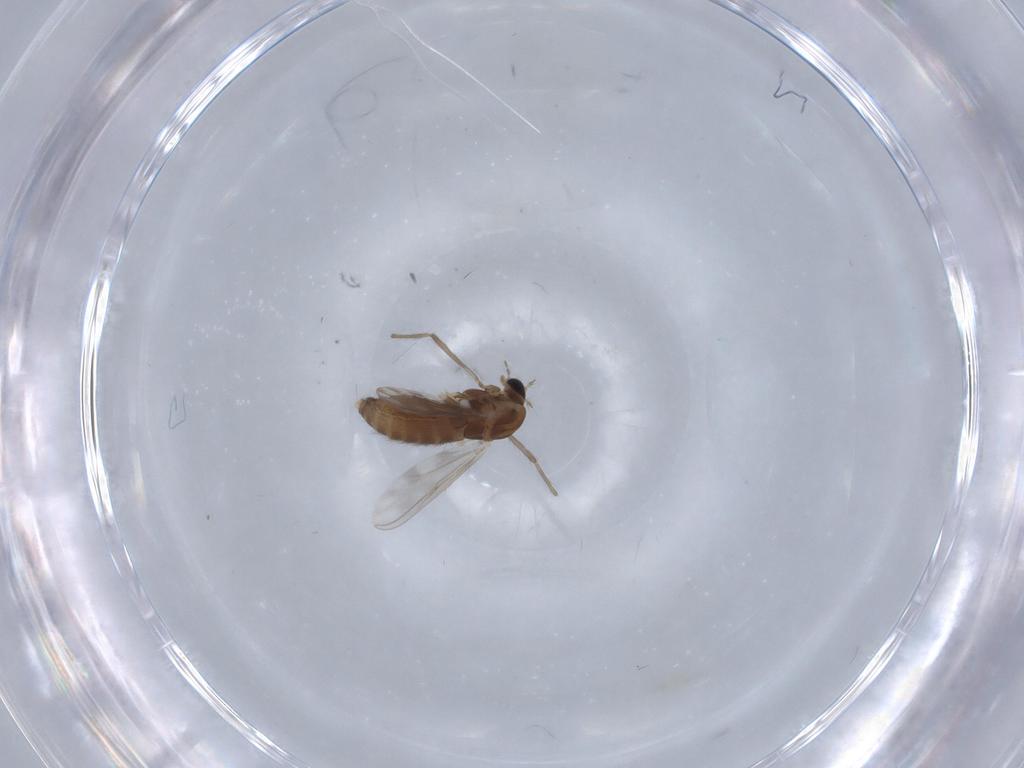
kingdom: Animalia
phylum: Arthropoda
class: Insecta
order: Diptera
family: Chironomidae
